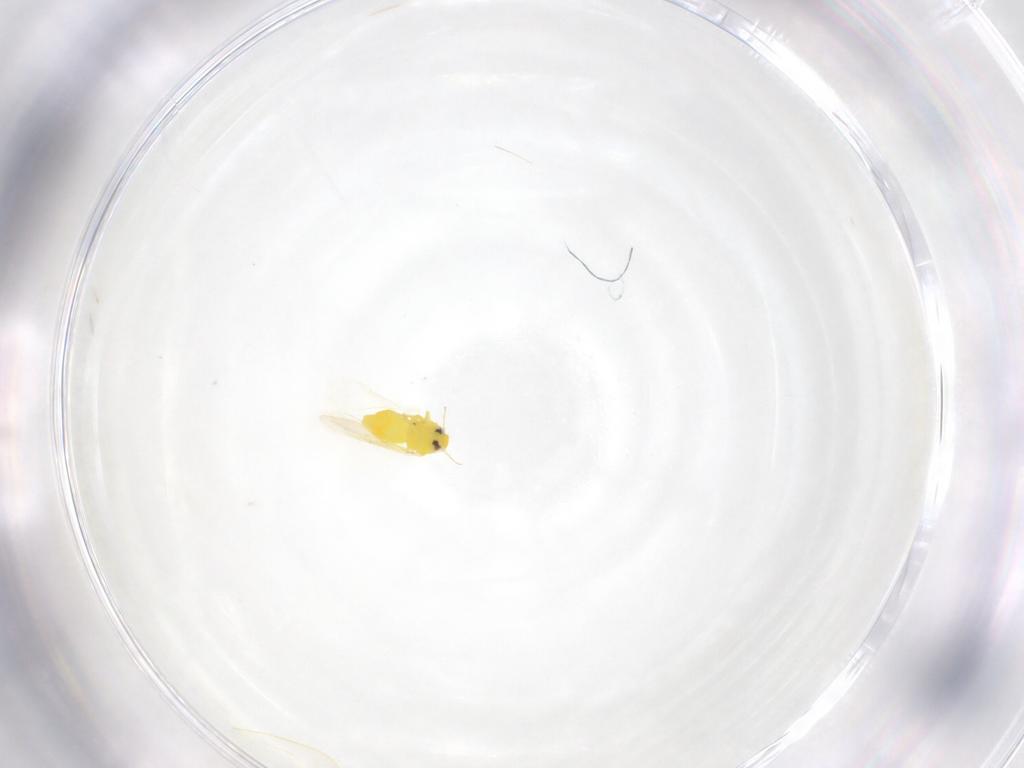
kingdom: Animalia
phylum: Arthropoda
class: Insecta
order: Hemiptera
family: Aleyrodidae
